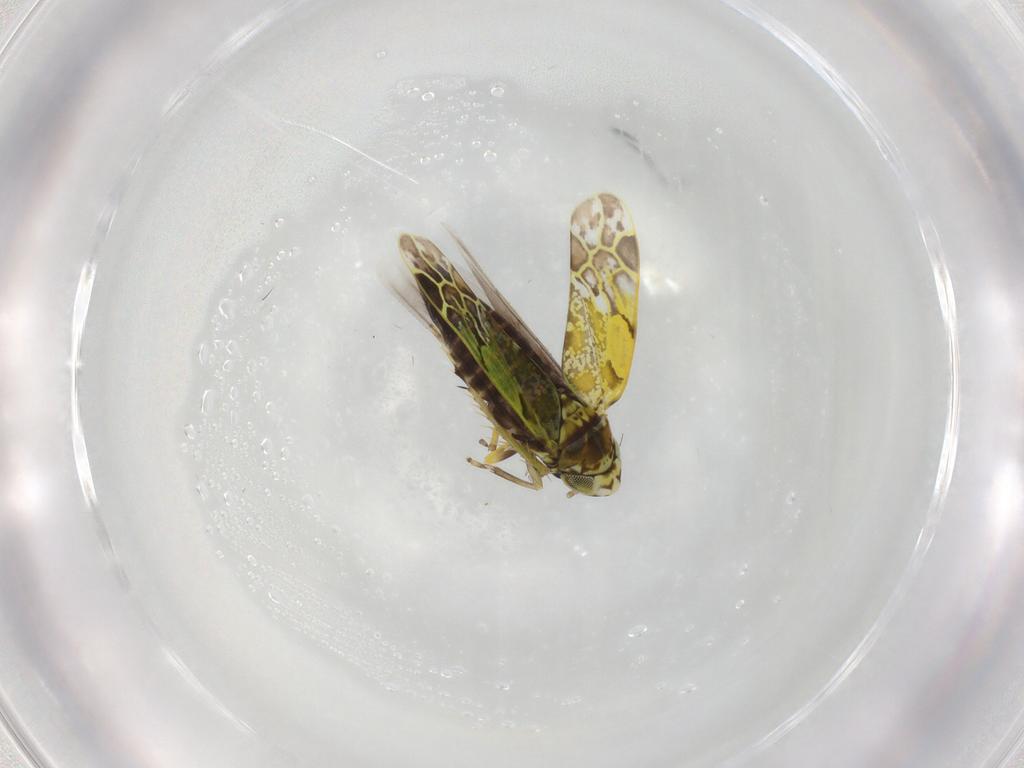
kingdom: Animalia
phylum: Arthropoda
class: Insecta
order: Hemiptera
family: Cicadellidae
